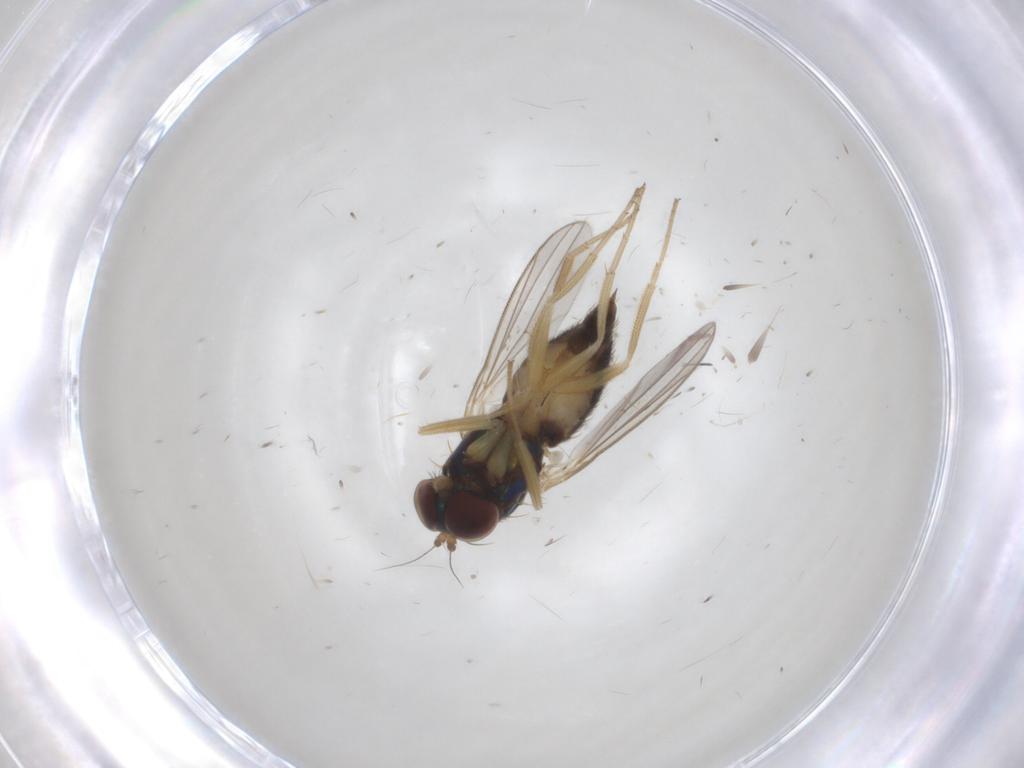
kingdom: Animalia
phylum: Arthropoda
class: Insecta
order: Diptera
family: Dolichopodidae
